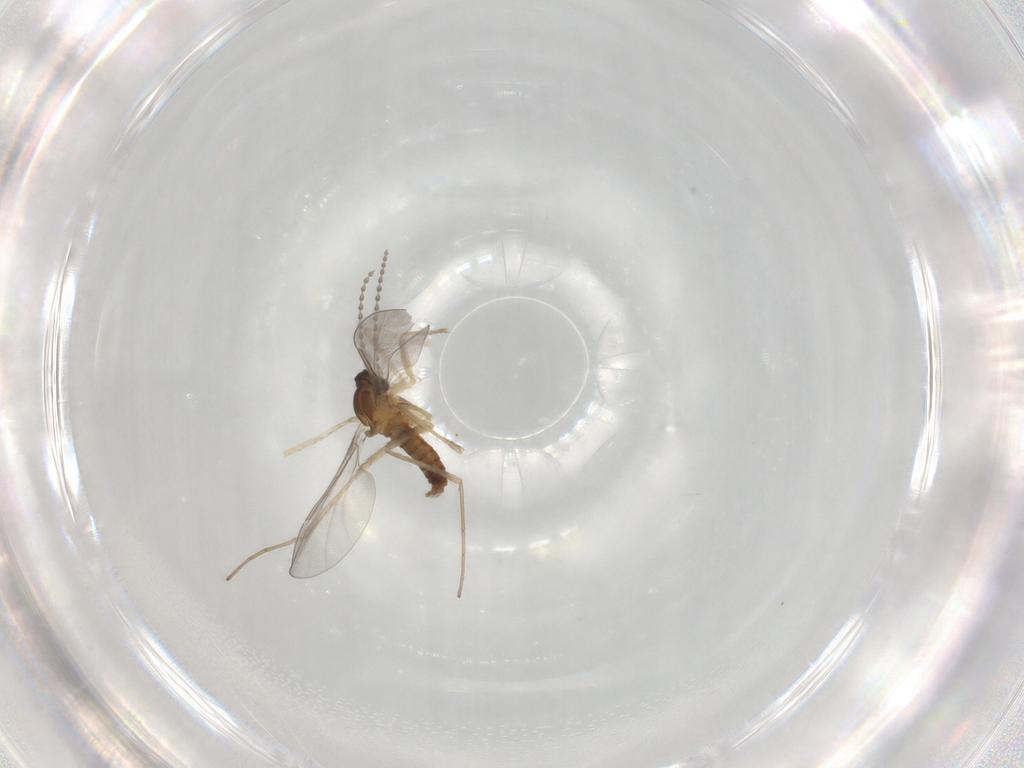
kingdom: Animalia
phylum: Arthropoda
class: Insecta
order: Diptera
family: Cecidomyiidae
